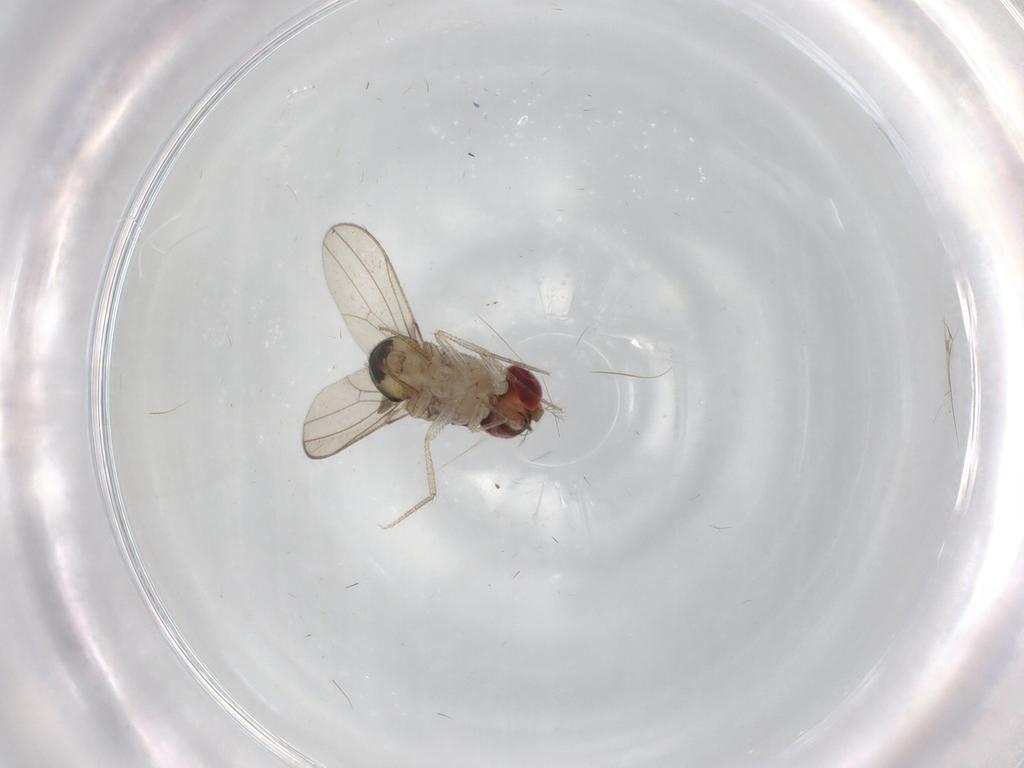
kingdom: Animalia
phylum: Arthropoda
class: Insecta
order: Diptera
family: Drosophilidae
